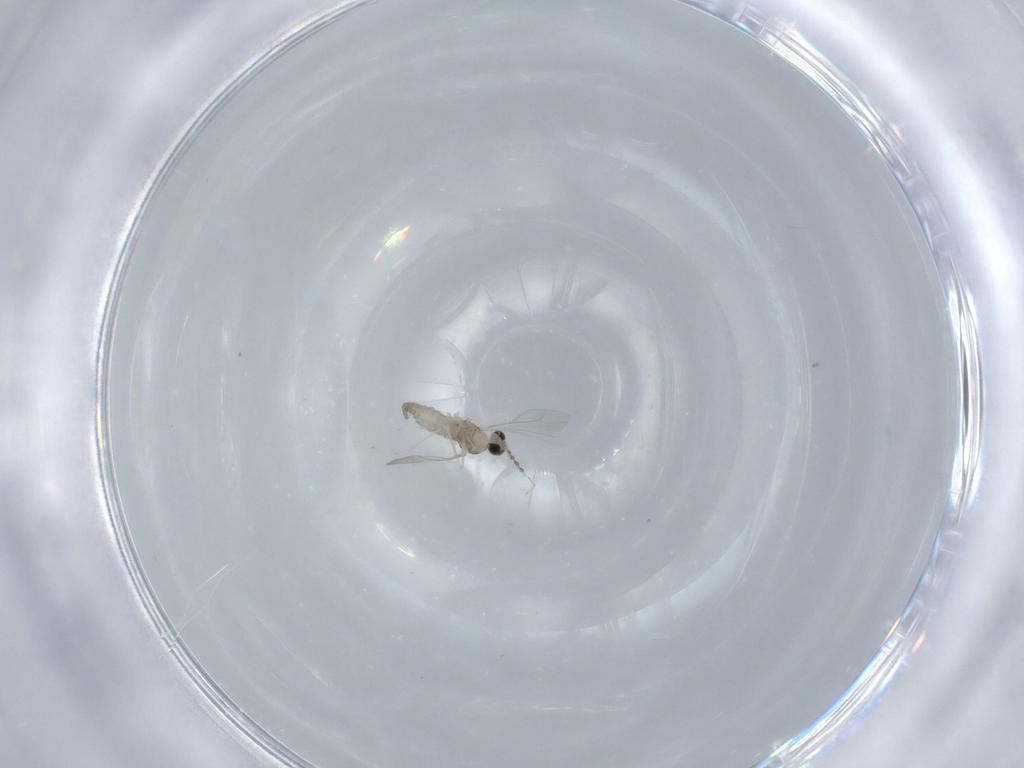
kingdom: Animalia
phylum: Arthropoda
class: Insecta
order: Diptera
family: Cecidomyiidae
